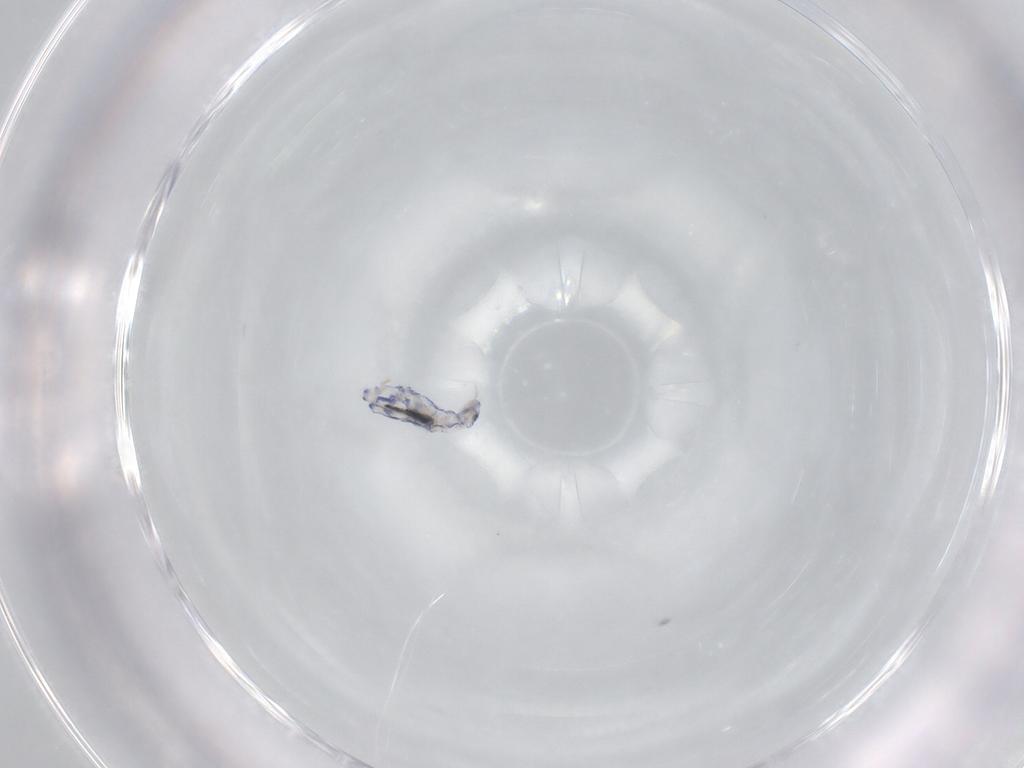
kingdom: Animalia
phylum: Arthropoda
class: Collembola
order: Entomobryomorpha
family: Entomobryidae
